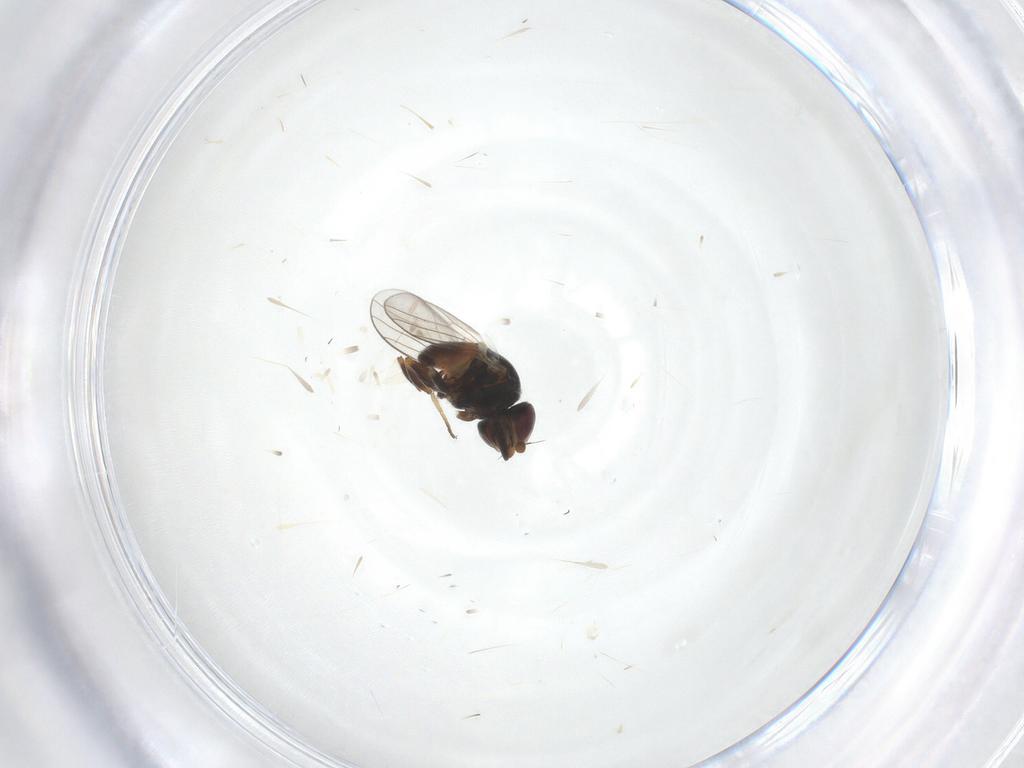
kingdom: Animalia
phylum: Arthropoda
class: Insecta
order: Diptera
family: Chloropidae
